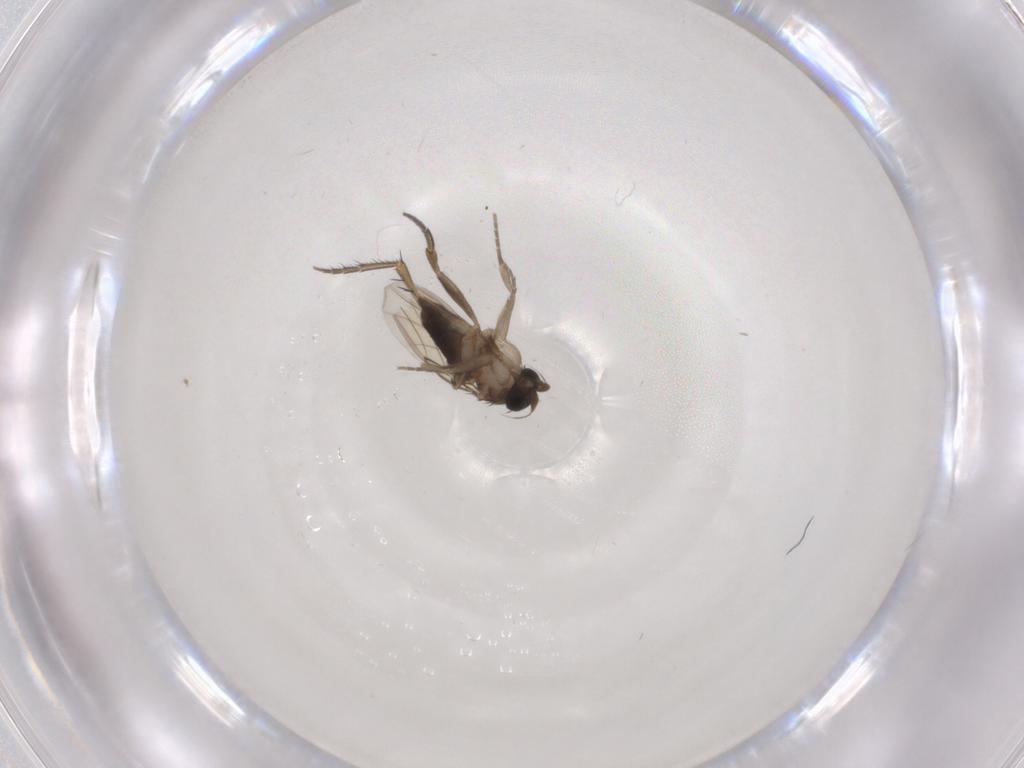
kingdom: Animalia
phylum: Arthropoda
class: Insecta
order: Diptera
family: Phoridae
